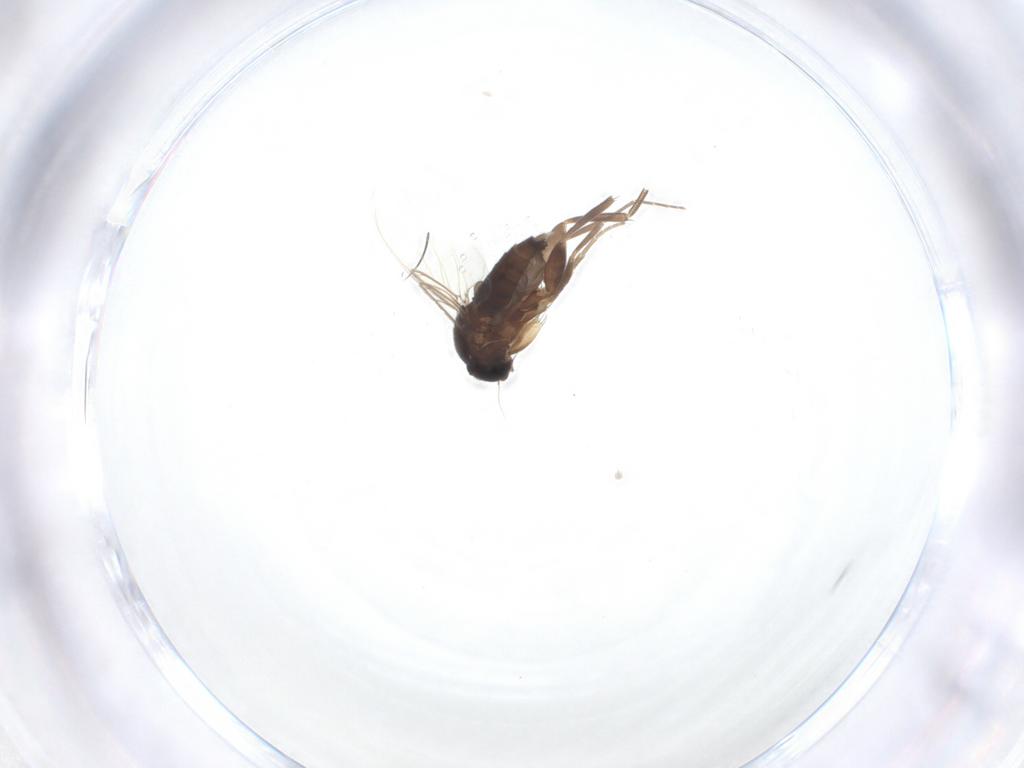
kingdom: Animalia
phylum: Arthropoda
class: Insecta
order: Diptera
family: Phoridae
